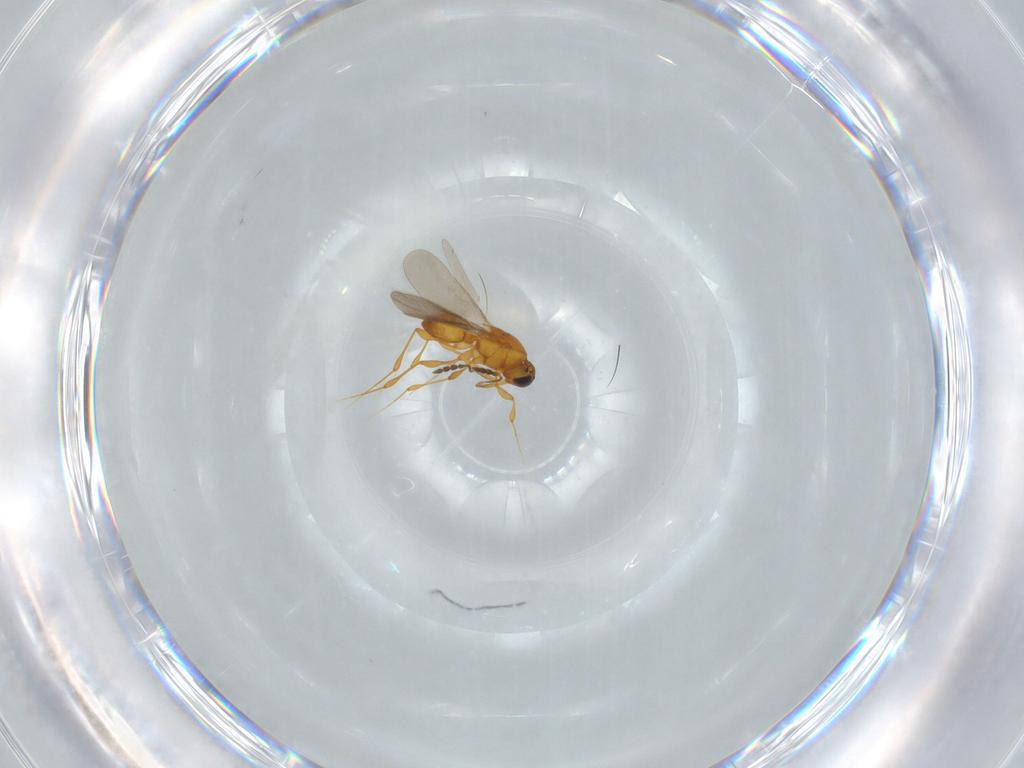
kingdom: Animalia
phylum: Arthropoda
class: Insecta
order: Hymenoptera
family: Platygastridae
